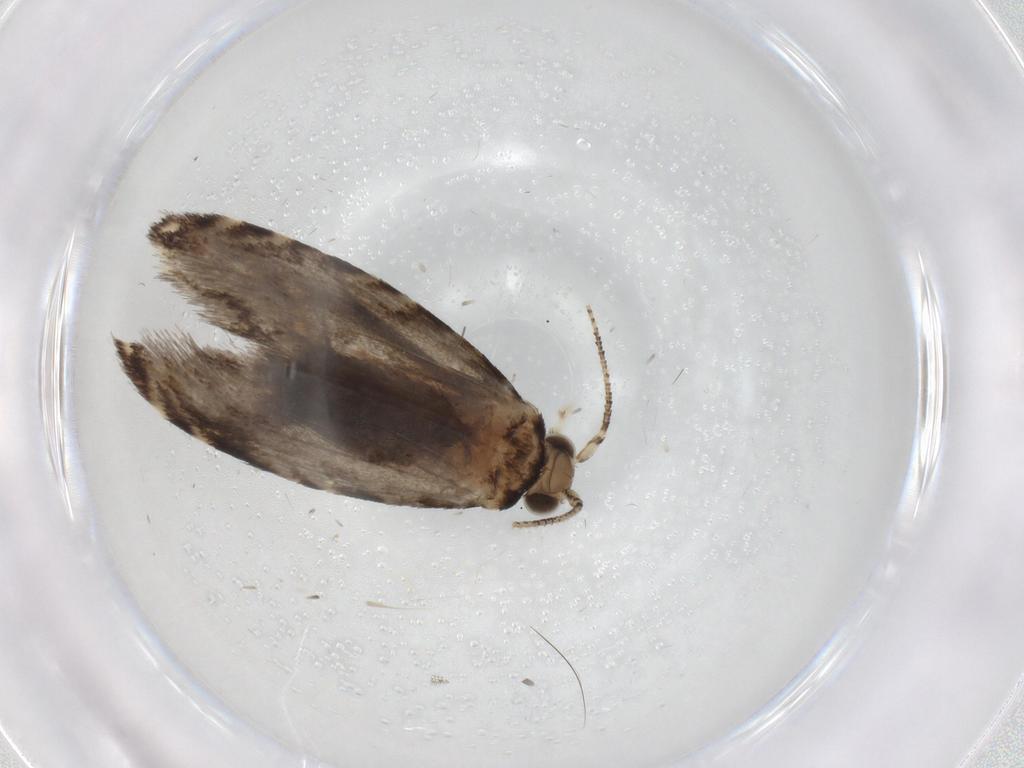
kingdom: Animalia
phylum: Arthropoda
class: Insecta
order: Lepidoptera
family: Tineidae
